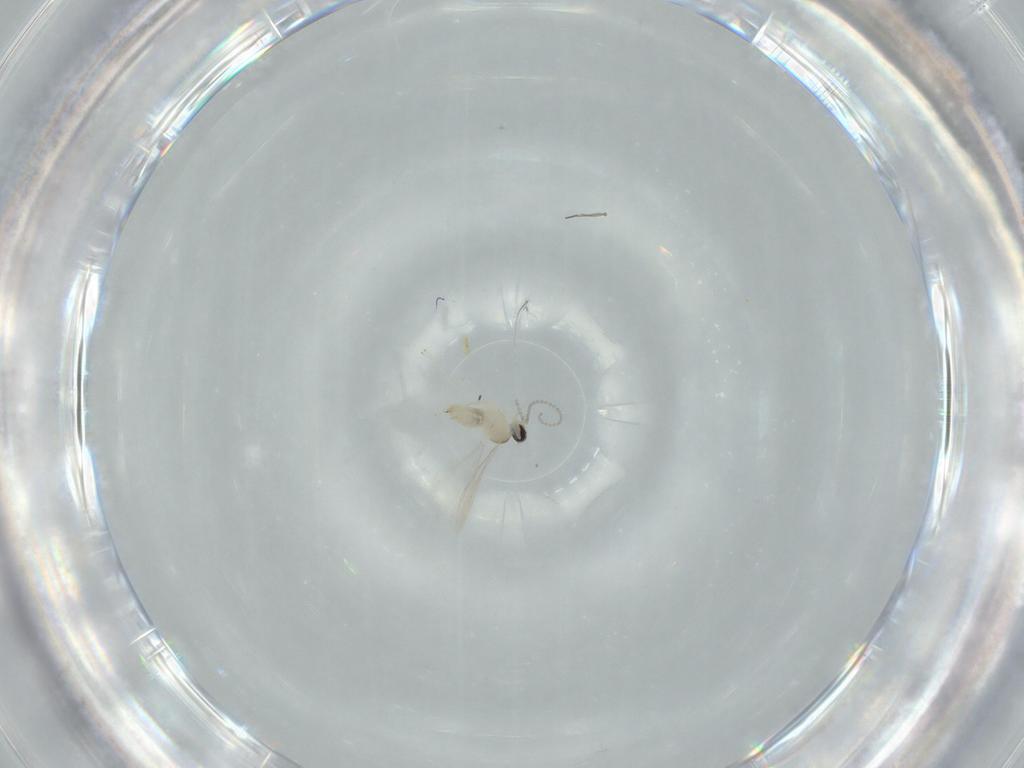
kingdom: Animalia
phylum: Arthropoda
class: Insecta
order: Diptera
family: Cecidomyiidae
